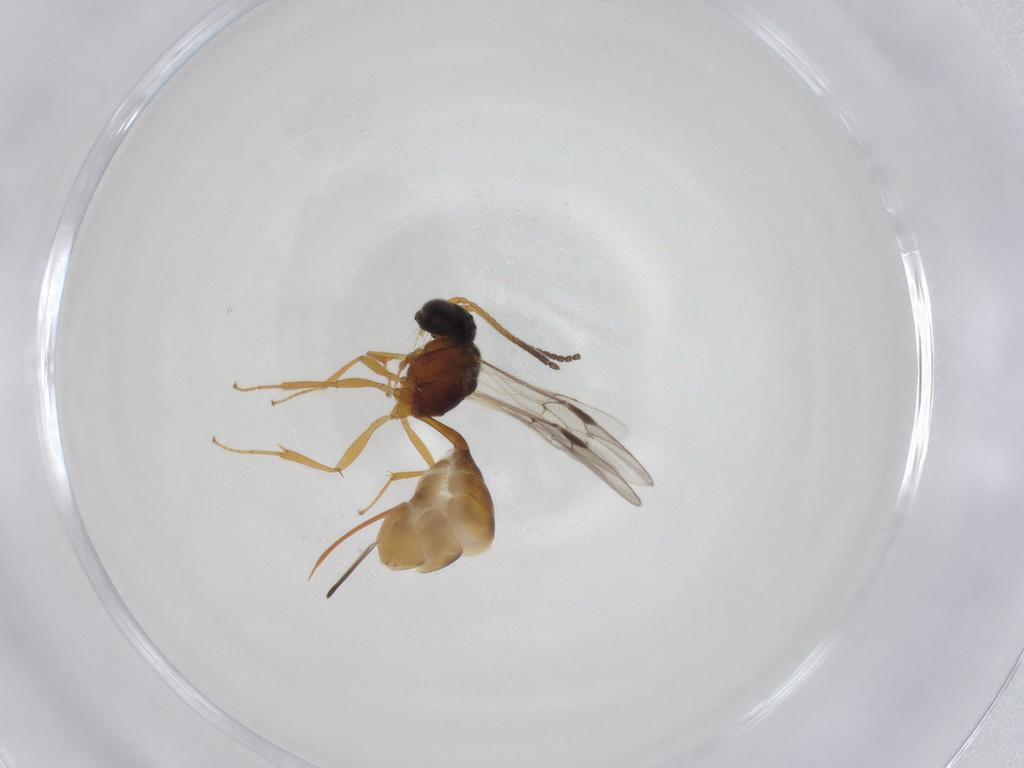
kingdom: Animalia
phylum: Arthropoda
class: Insecta
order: Hymenoptera
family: Ichneumonidae
